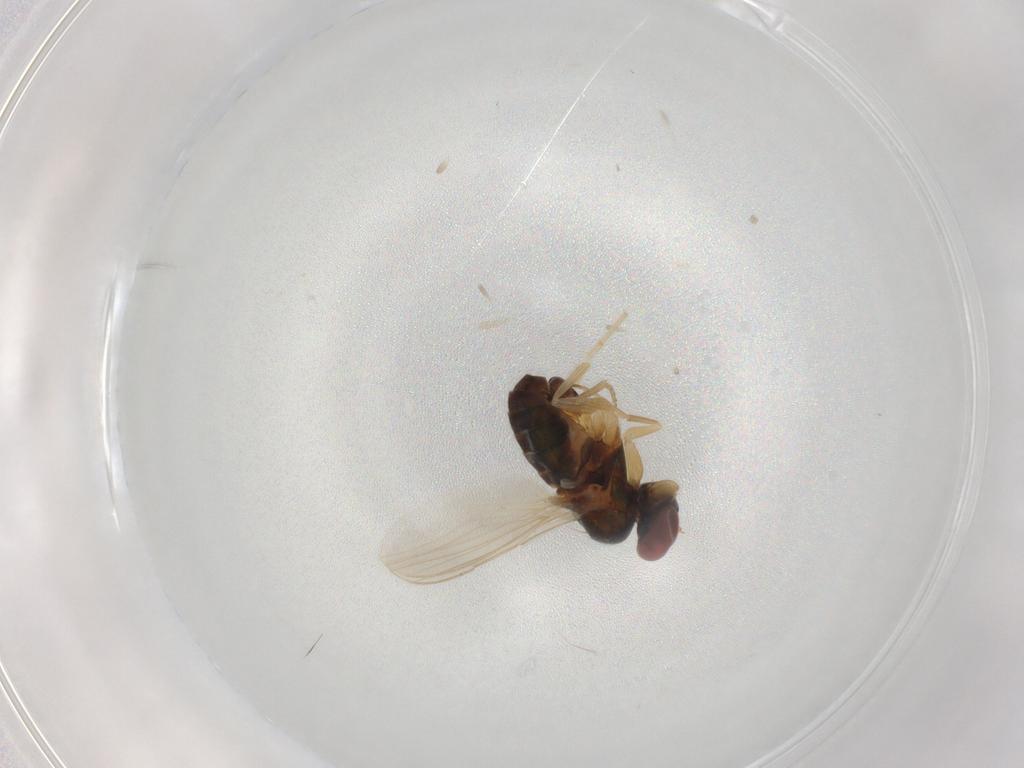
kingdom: Animalia
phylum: Arthropoda
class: Insecta
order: Diptera
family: Dolichopodidae
